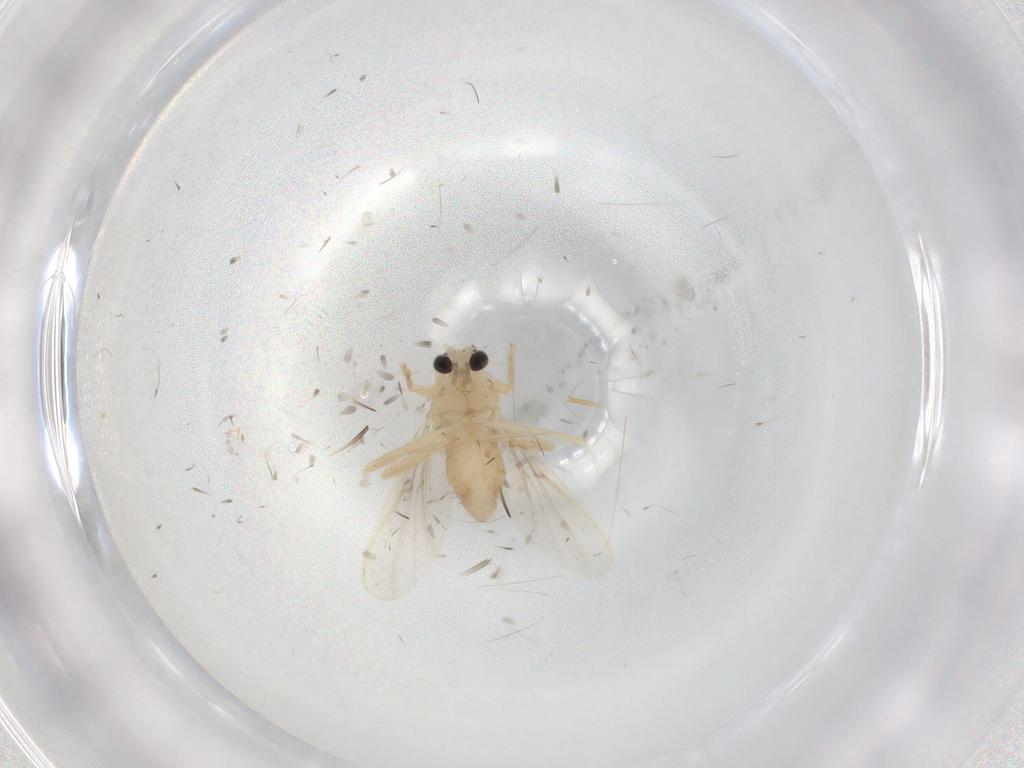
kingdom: Animalia
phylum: Arthropoda
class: Insecta
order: Diptera
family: Chironomidae
